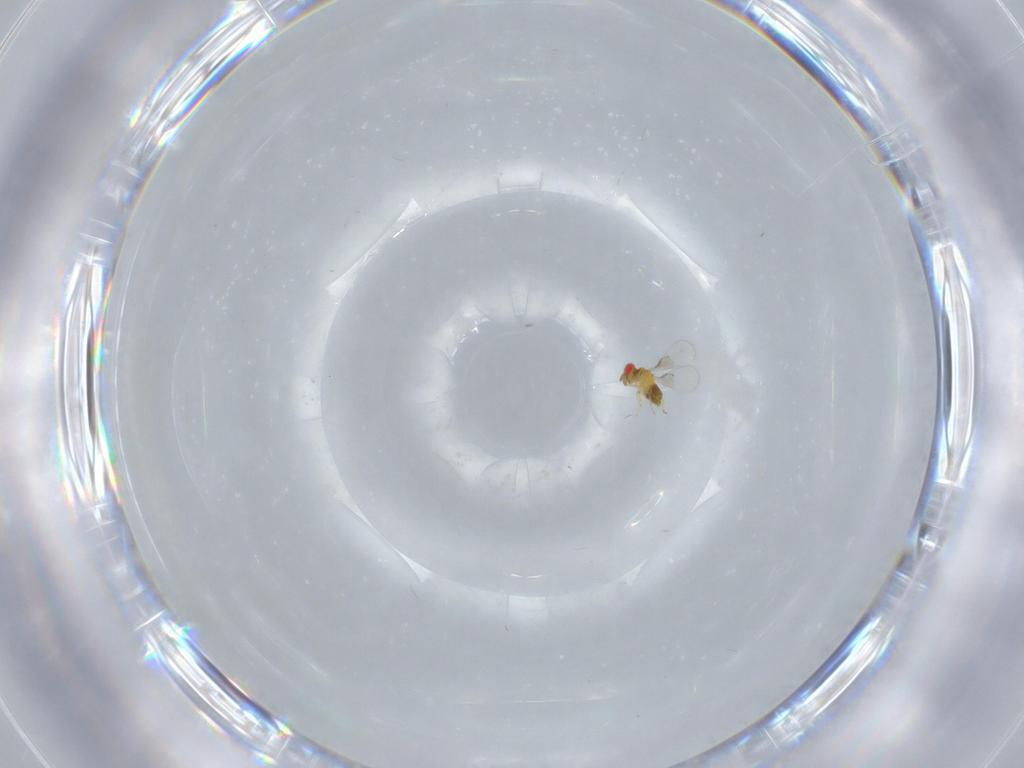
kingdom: Animalia
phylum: Arthropoda
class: Insecta
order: Hymenoptera
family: Trichogrammatidae
